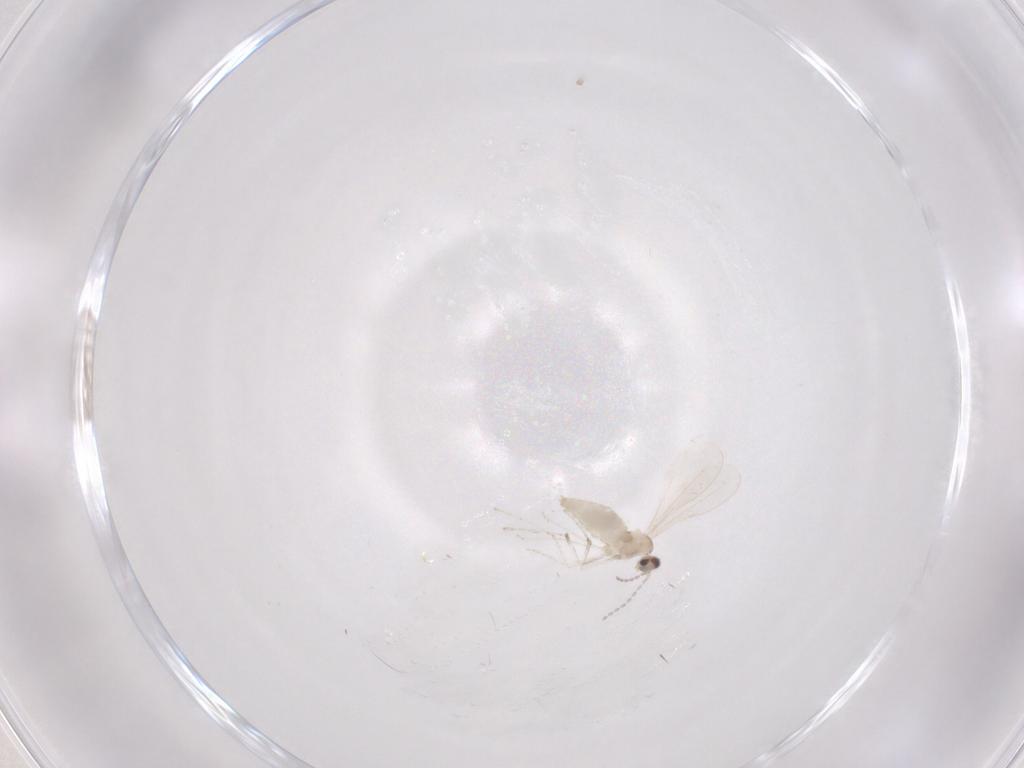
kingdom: Animalia
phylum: Arthropoda
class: Insecta
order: Diptera
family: Cecidomyiidae
